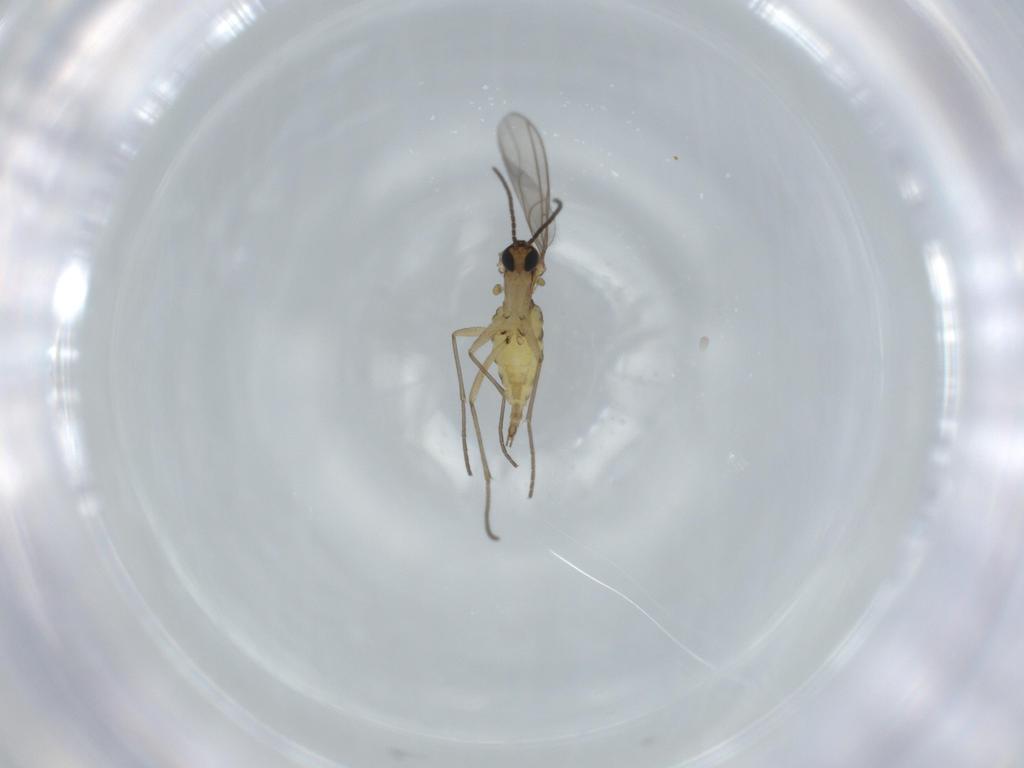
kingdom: Animalia
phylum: Arthropoda
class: Insecta
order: Diptera
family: Sciaridae
